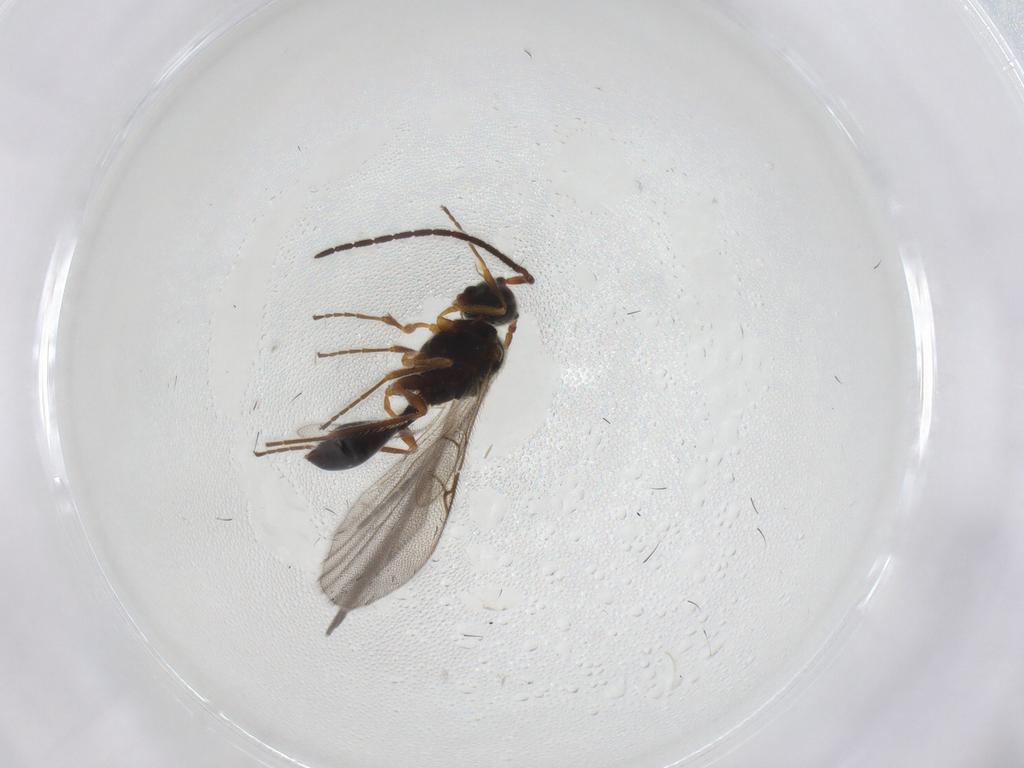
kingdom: Animalia
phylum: Arthropoda
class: Insecta
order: Hymenoptera
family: Diapriidae
